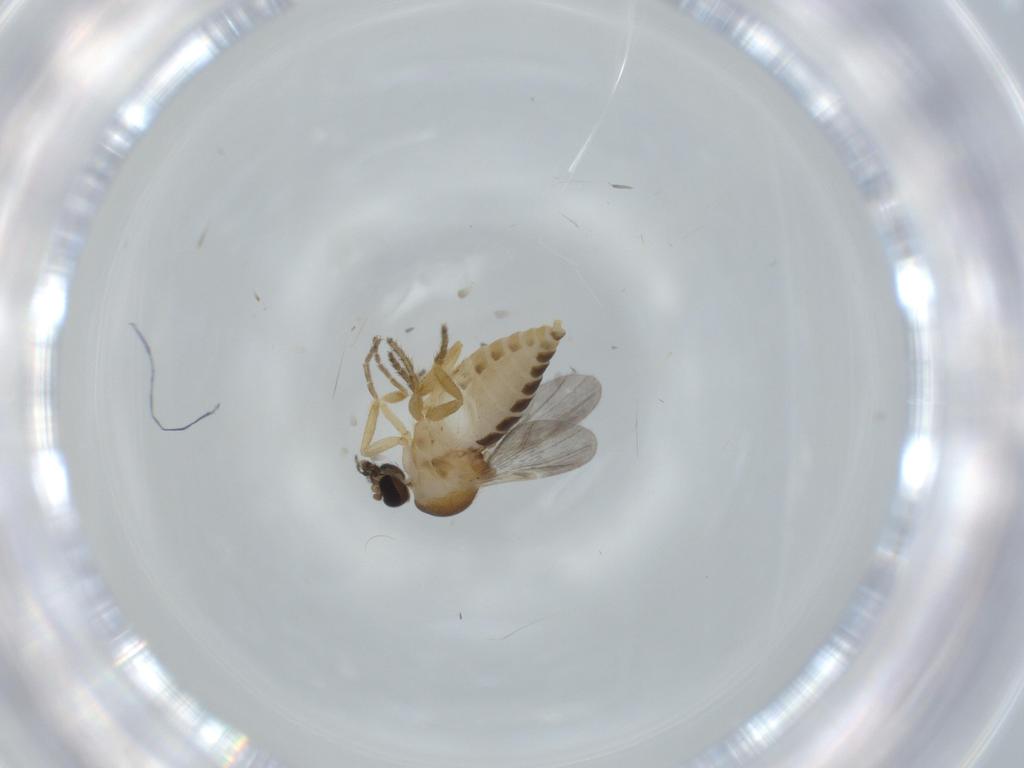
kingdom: Animalia
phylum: Arthropoda
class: Insecta
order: Diptera
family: Ceratopogonidae
